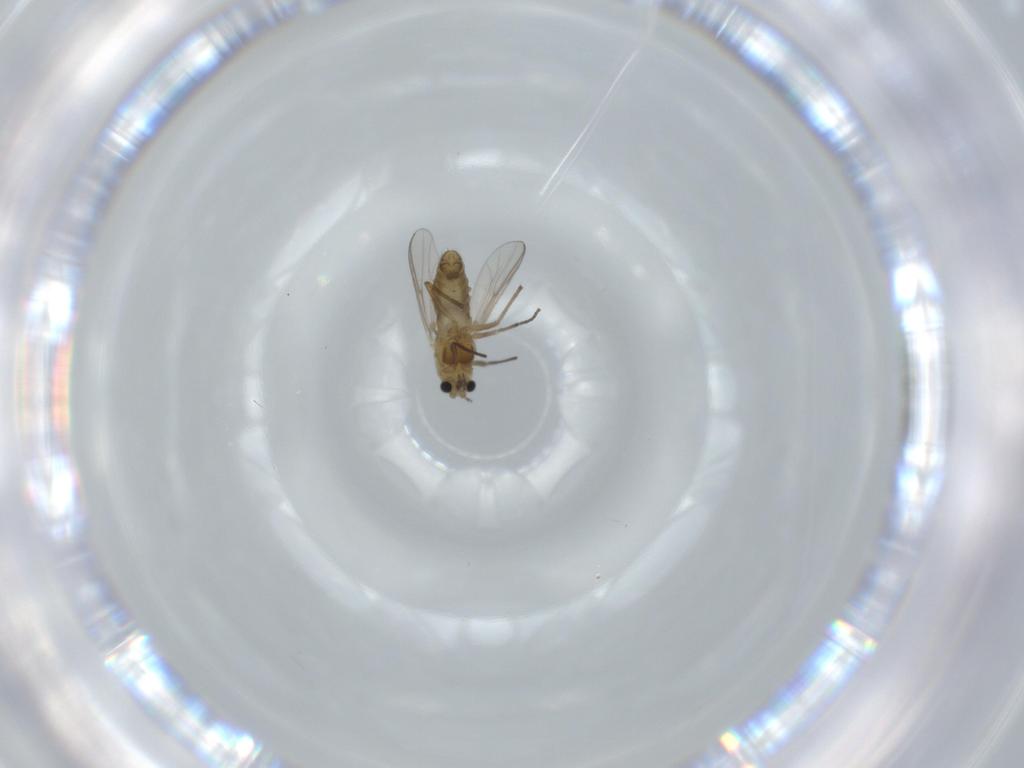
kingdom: Animalia
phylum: Arthropoda
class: Insecta
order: Diptera
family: Chironomidae
